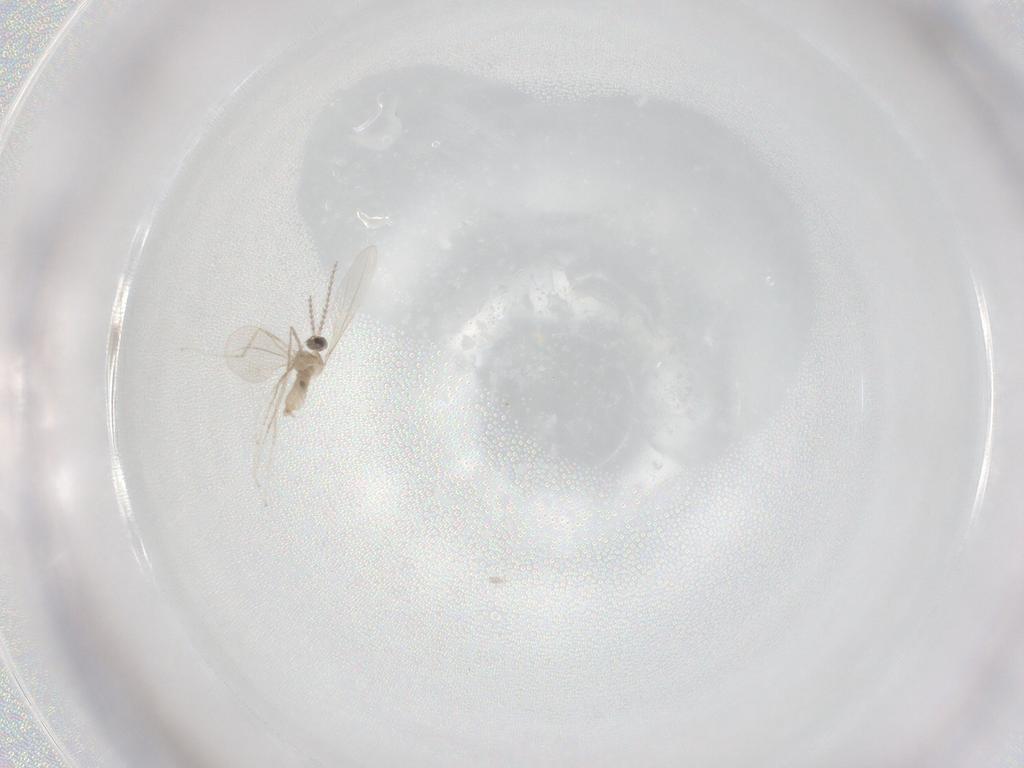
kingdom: Animalia
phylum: Arthropoda
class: Insecta
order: Diptera
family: Cecidomyiidae
